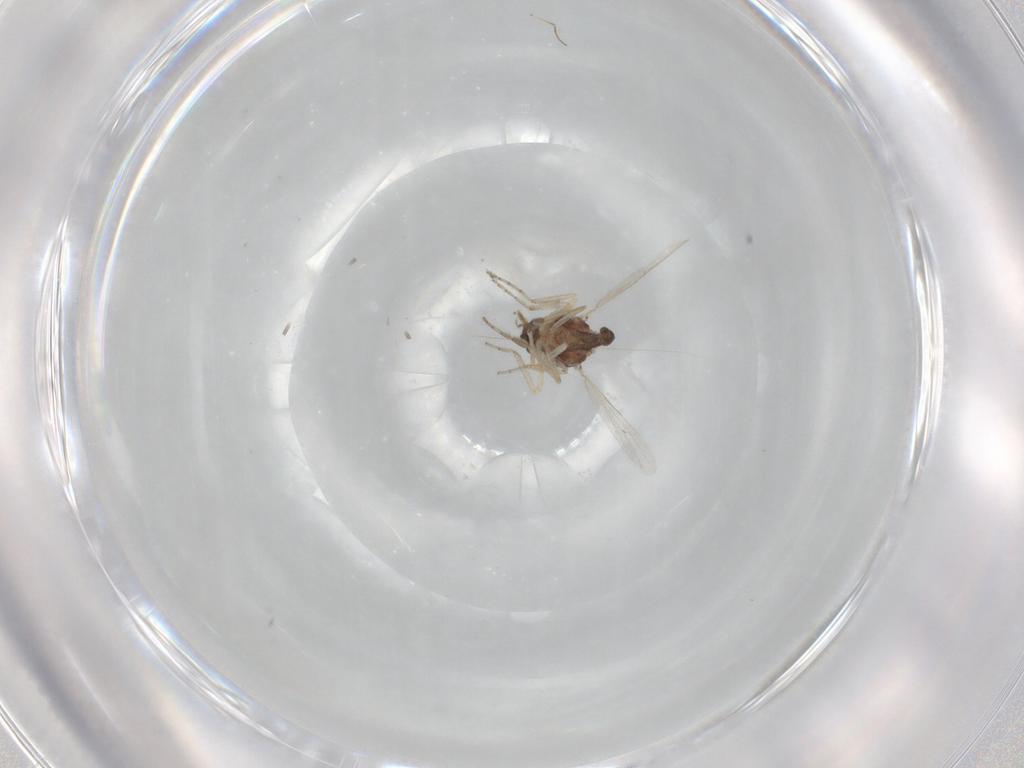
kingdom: Animalia
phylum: Arthropoda
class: Insecta
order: Diptera
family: Ceratopogonidae
